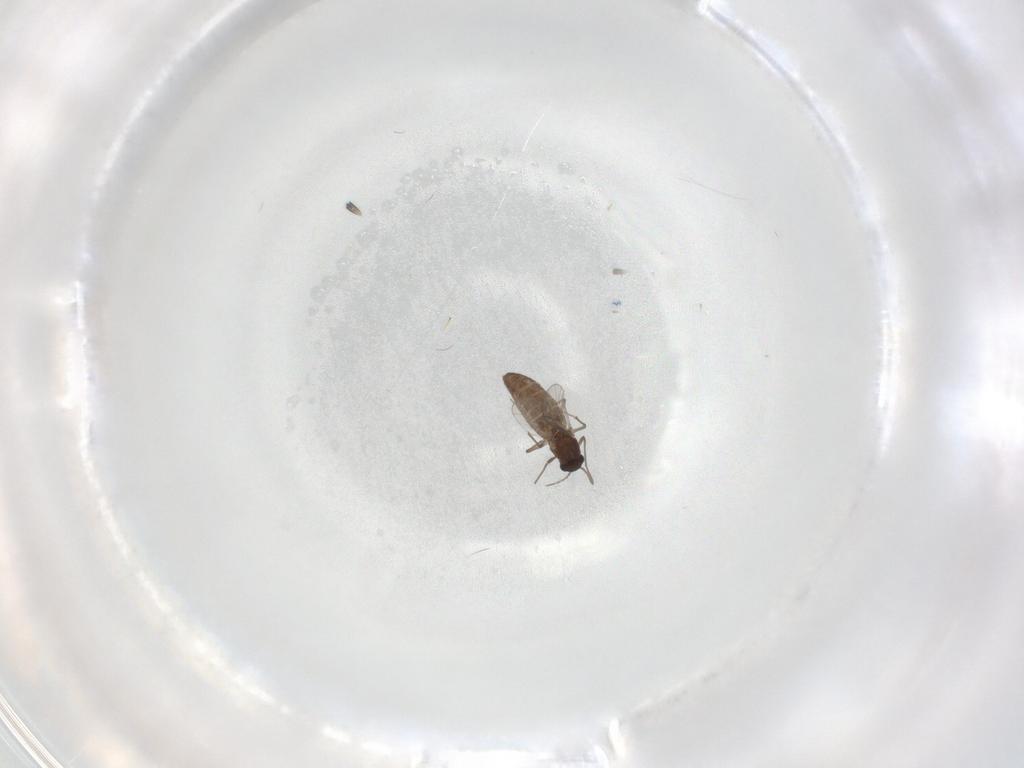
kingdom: Animalia
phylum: Arthropoda
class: Insecta
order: Diptera
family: Chironomidae
